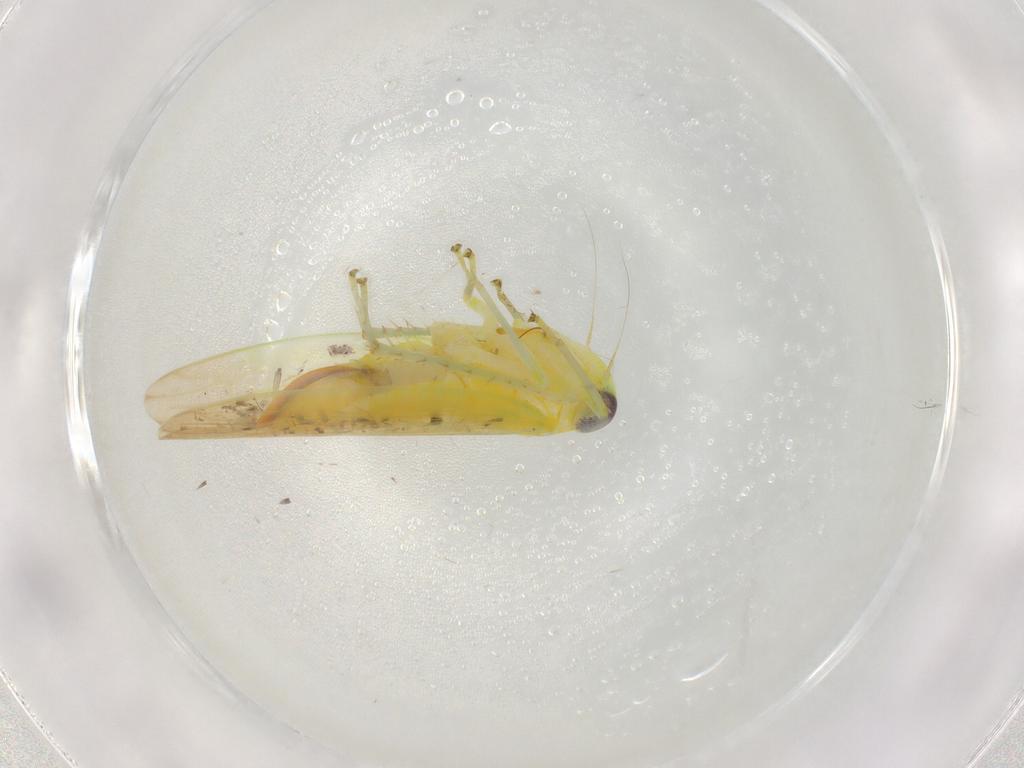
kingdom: Animalia
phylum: Arthropoda
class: Insecta
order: Hemiptera
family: Cicadellidae
